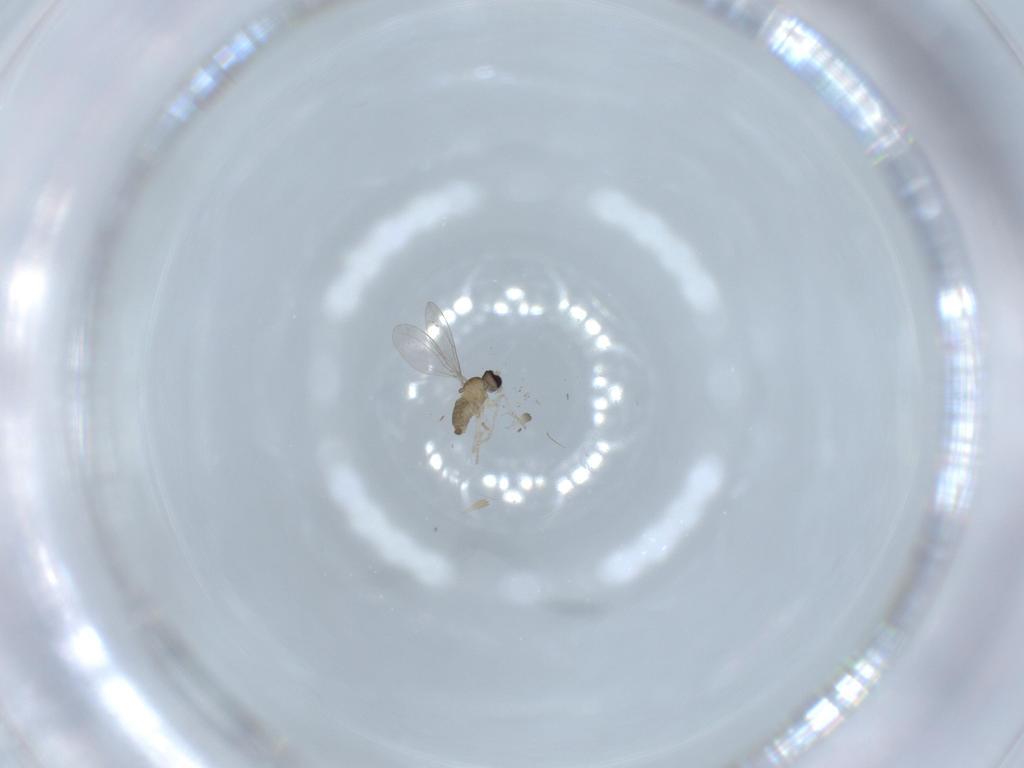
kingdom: Animalia
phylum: Arthropoda
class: Insecta
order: Diptera
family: Cecidomyiidae
